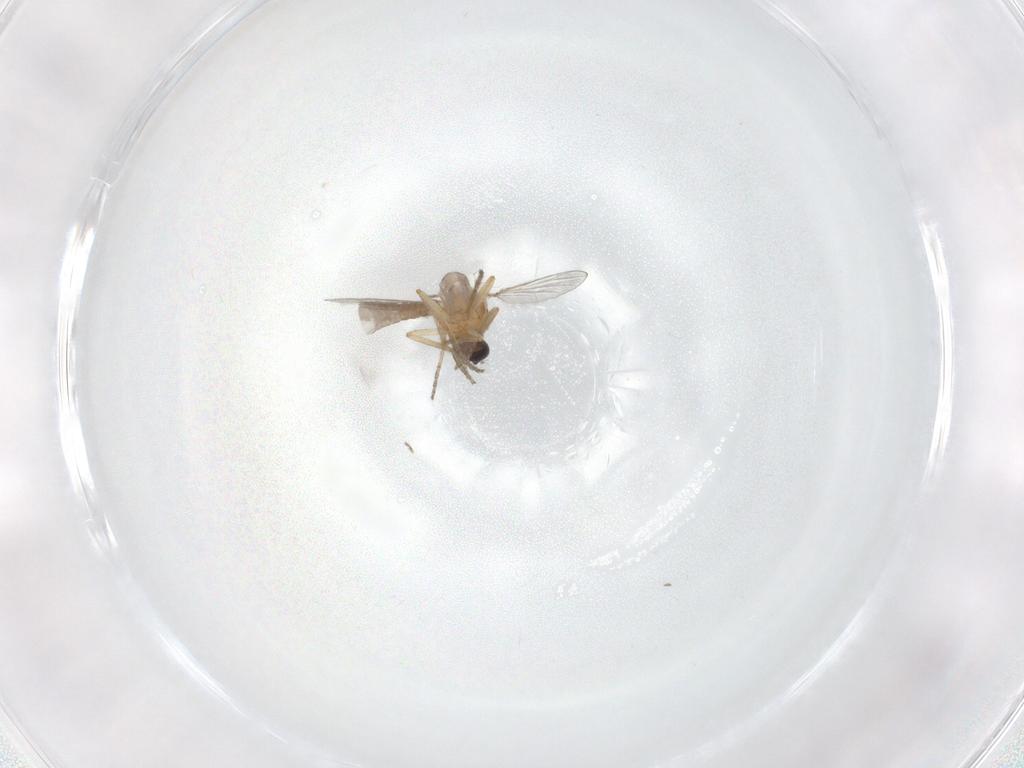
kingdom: Animalia
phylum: Arthropoda
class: Insecta
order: Diptera
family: Ceratopogonidae
